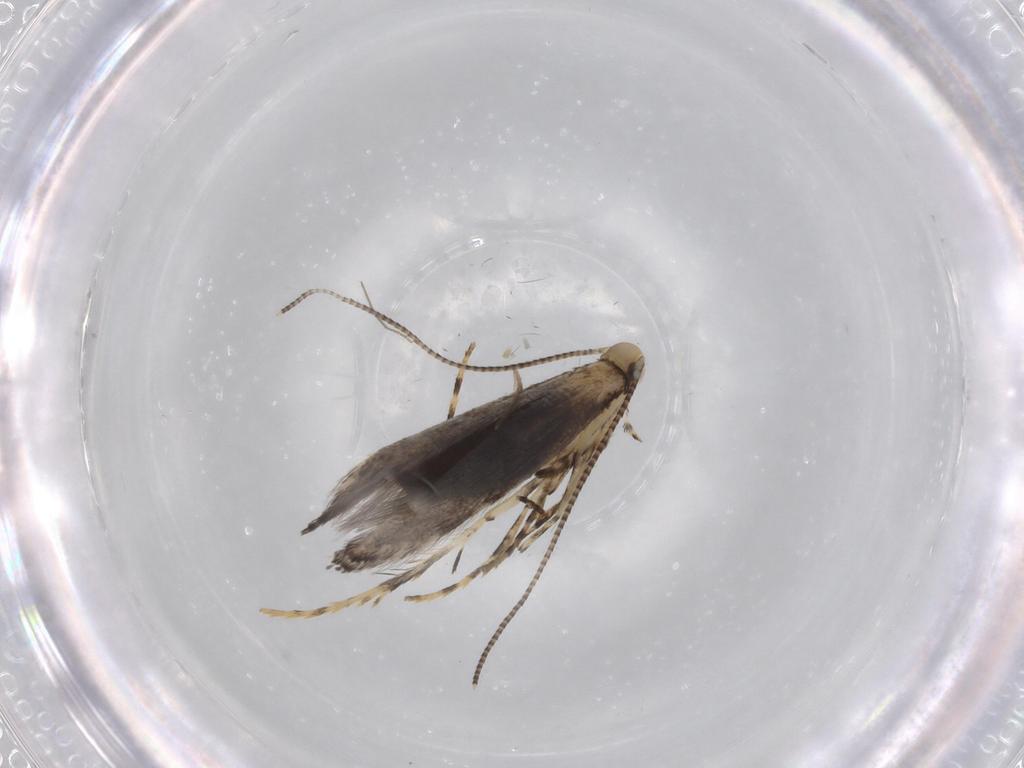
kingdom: Animalia
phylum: Arthropoda
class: Insecta
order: Lepidoptera
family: Gracillariidae
